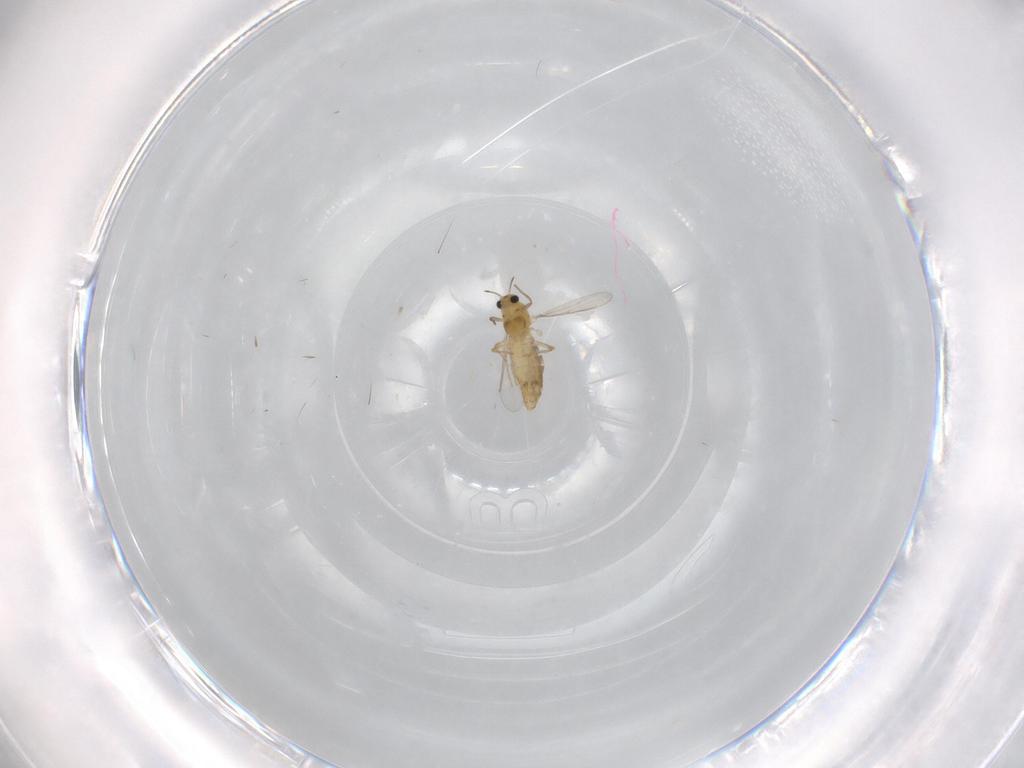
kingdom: Animalia
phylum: Arthropoda
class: Insecta
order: Diptera
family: Chironomidae
